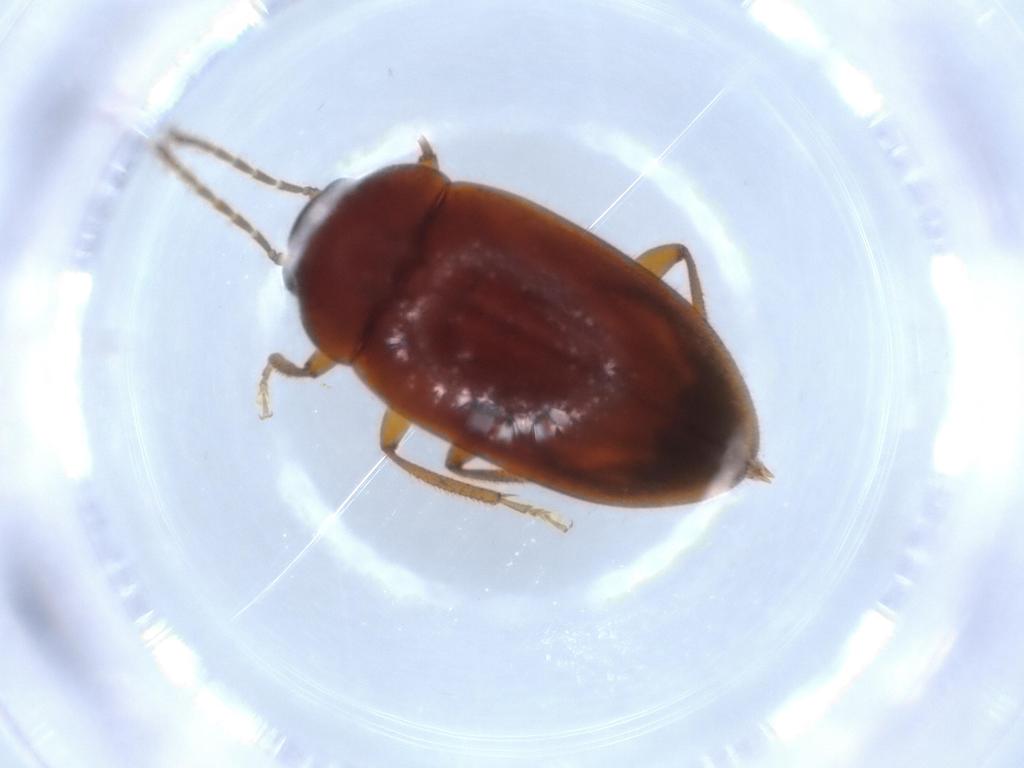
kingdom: Animalia
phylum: Arthropoda
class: Insecta
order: Coleoptera
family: Ptilodactylidae
